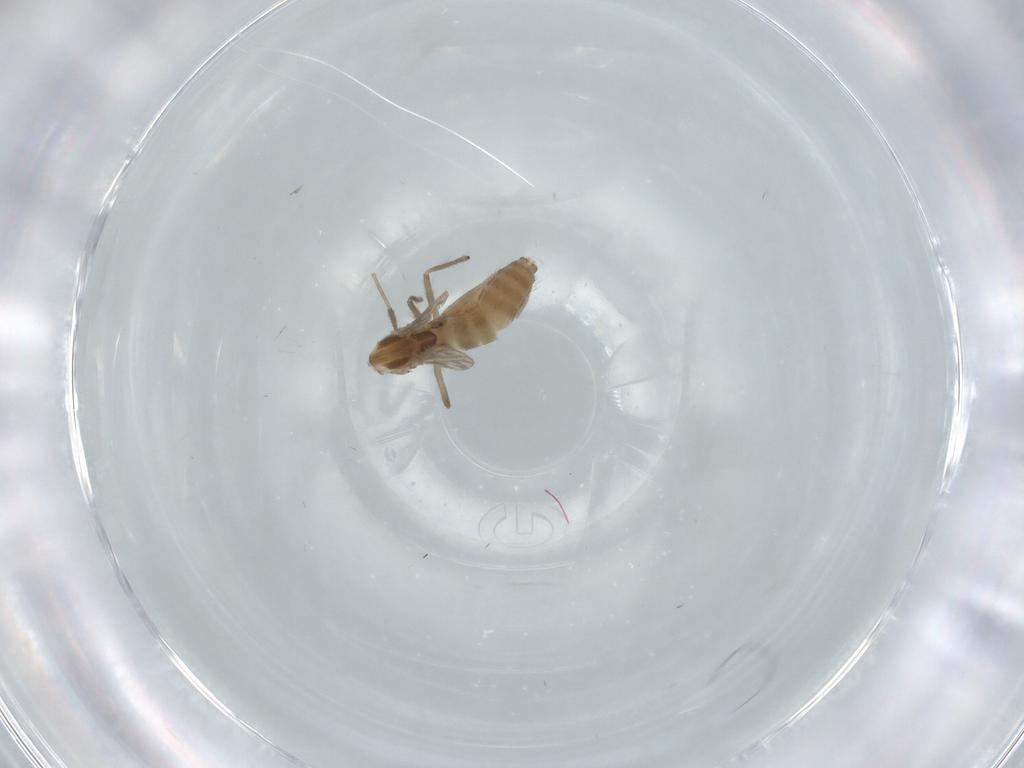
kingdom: Animalia
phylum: Arthropoda
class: Insecta
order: Diptera
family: Chironomidae
